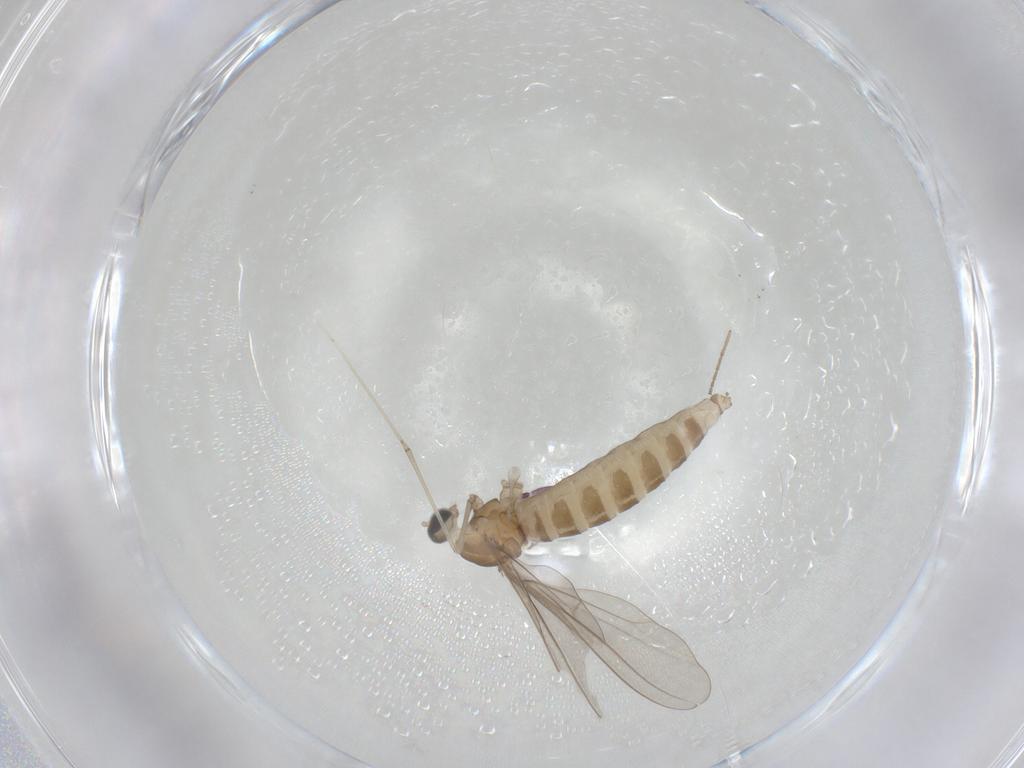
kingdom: Animalia
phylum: Arthropoda
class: Insecta
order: Diptera
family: Cecidomyiidae
